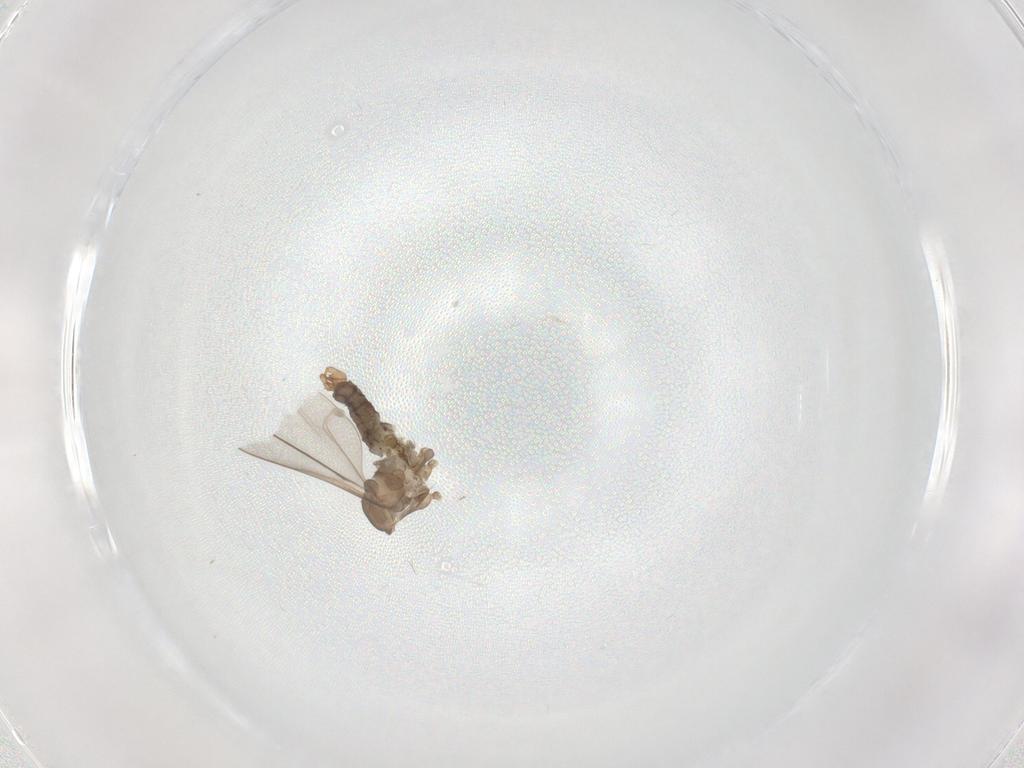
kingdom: Animalia
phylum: Arthropoda
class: Insecta
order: Diptera
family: Cecidomyiidae
